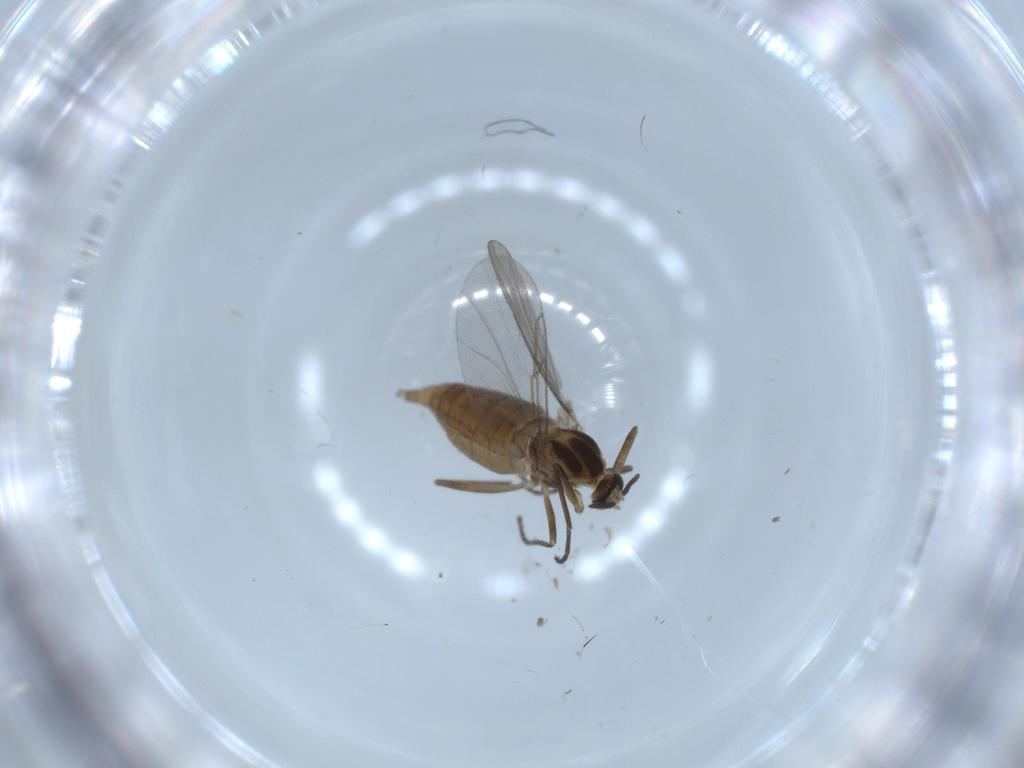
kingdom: Animalia
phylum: Arthropoda
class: Insecta
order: Diptera
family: Cecidomyiidae
